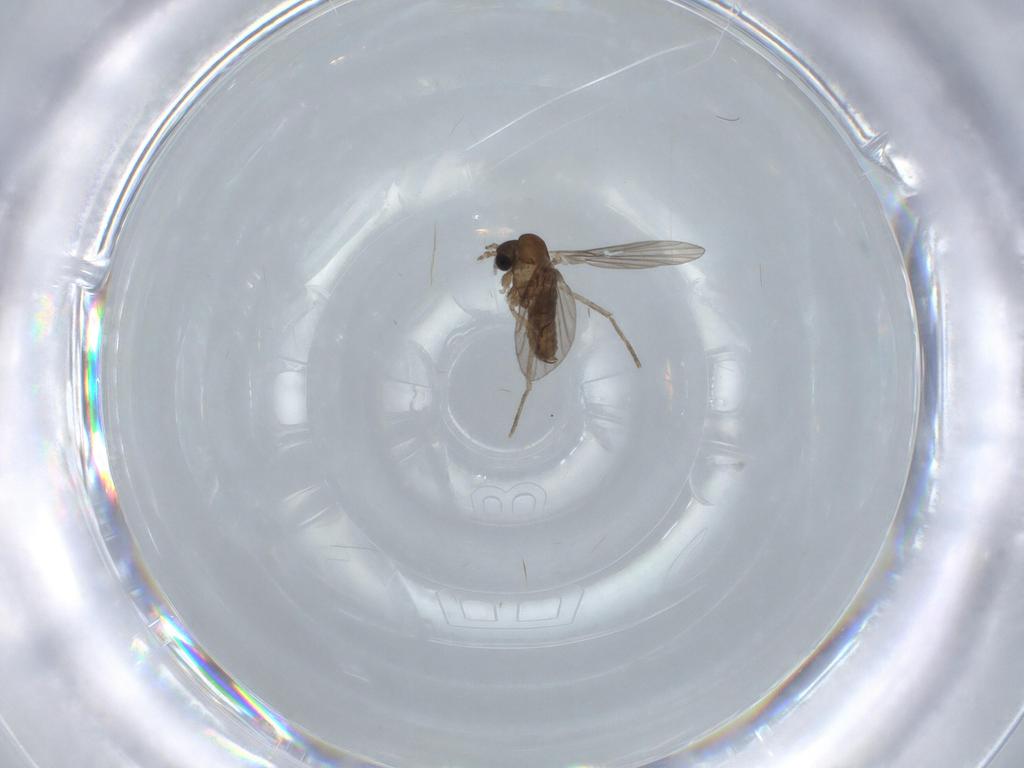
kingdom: Animalia
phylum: Arthropoda
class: Insecta
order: Diptera
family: Psychodidae
